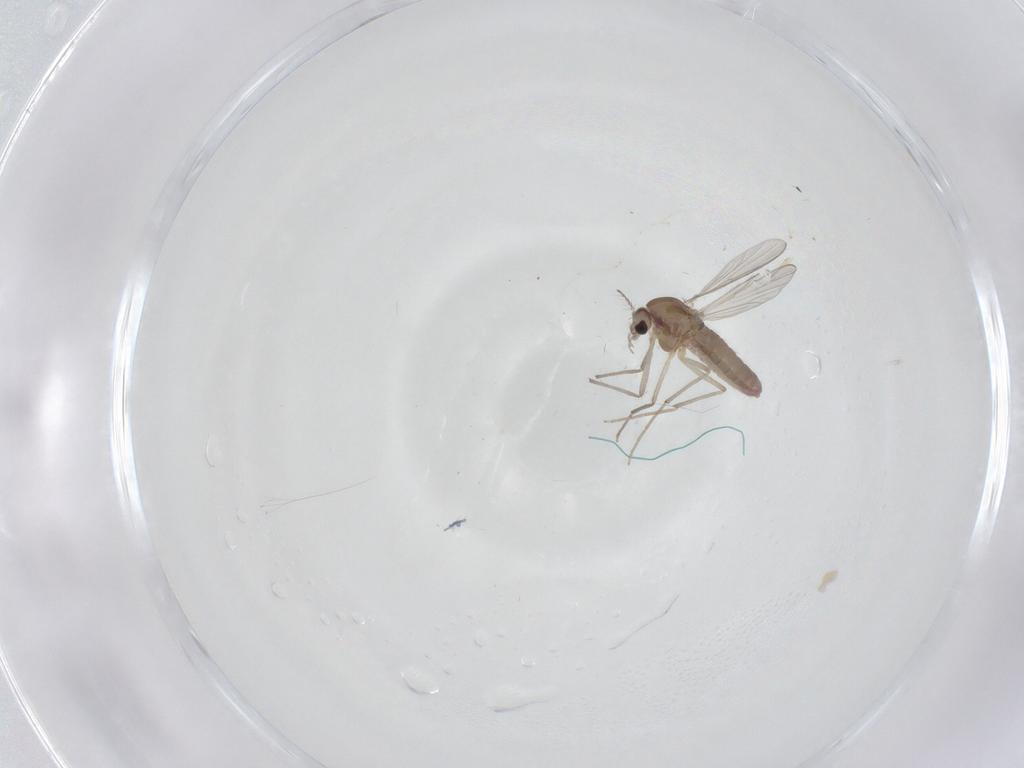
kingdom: Animalia
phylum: Arthropoda
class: Insecta
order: Diptera
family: Chironomidae
